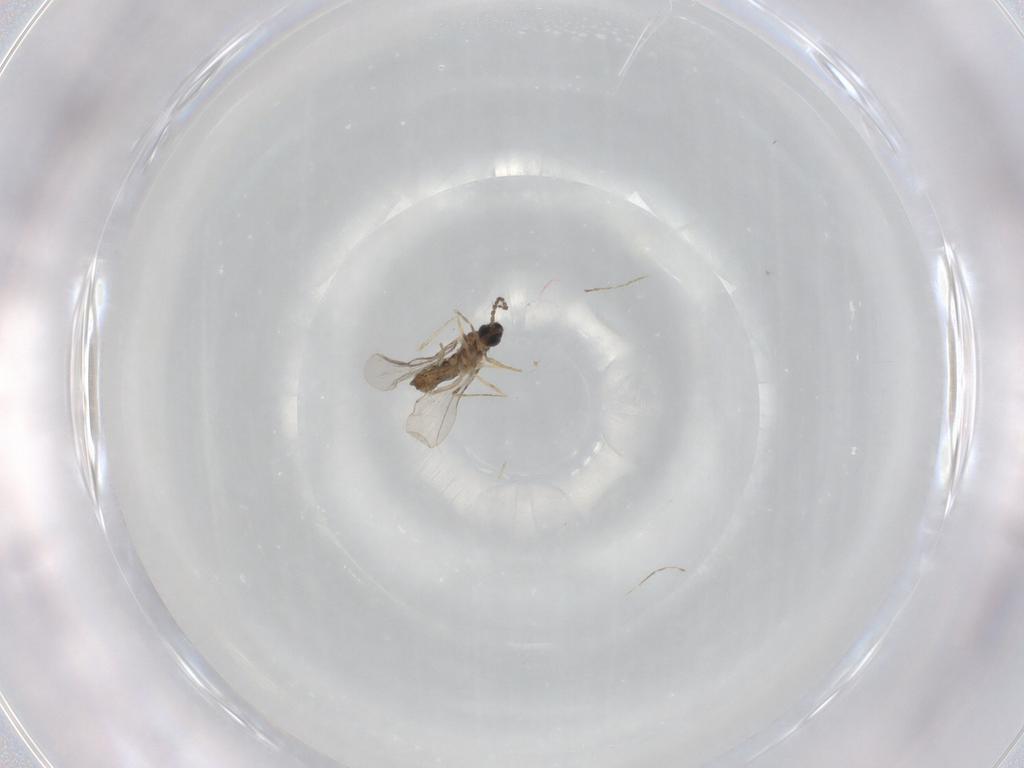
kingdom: Animalia
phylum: Arthropoda
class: Insecta
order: Diptera
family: Cecidomyiidae
